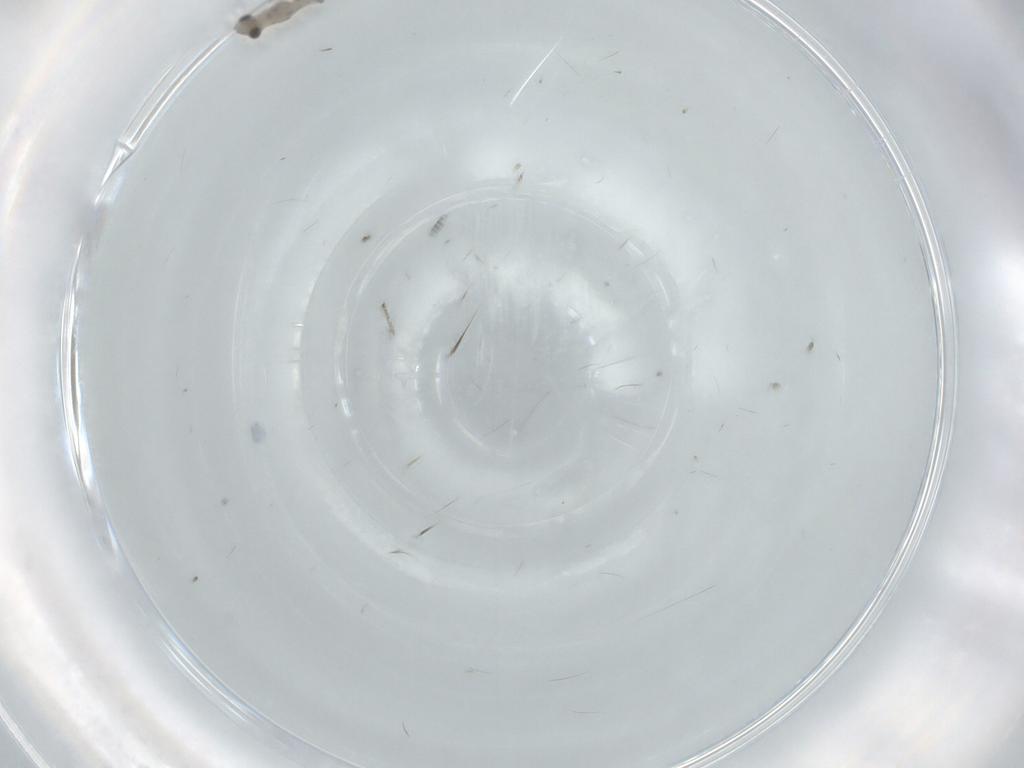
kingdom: Animalia
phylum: Arthropoda
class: Insecta
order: Diptera
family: Chironomidae
